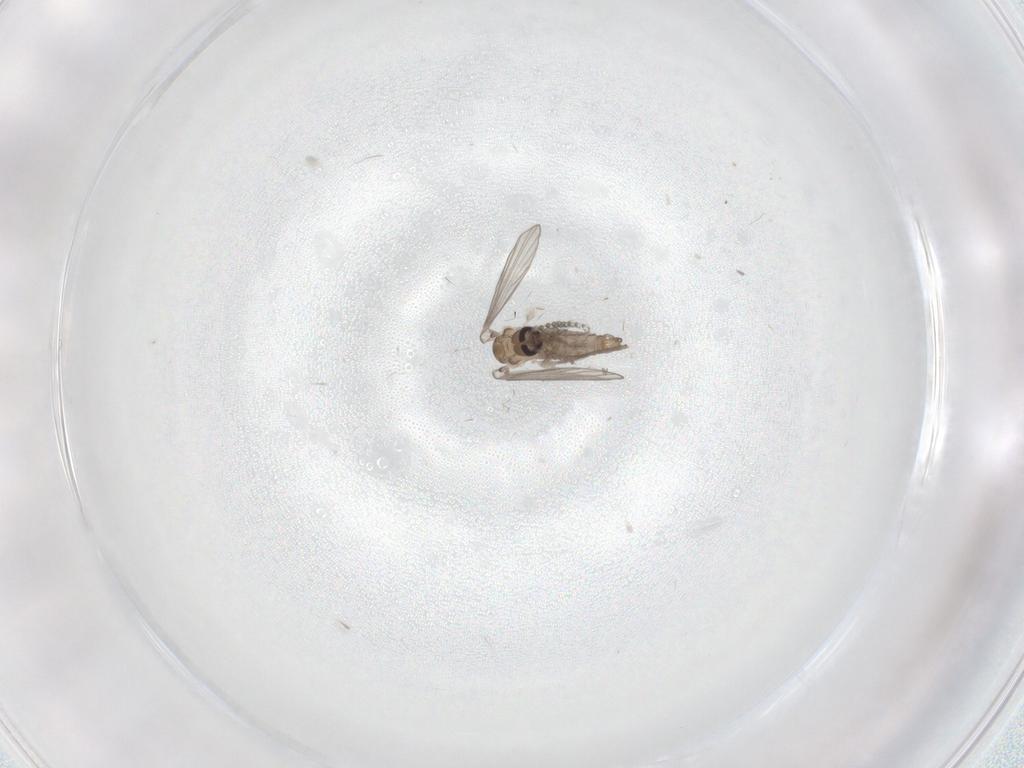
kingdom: Animalia
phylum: Arthropoda
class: Insecta
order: Diptera
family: Psychodidae
